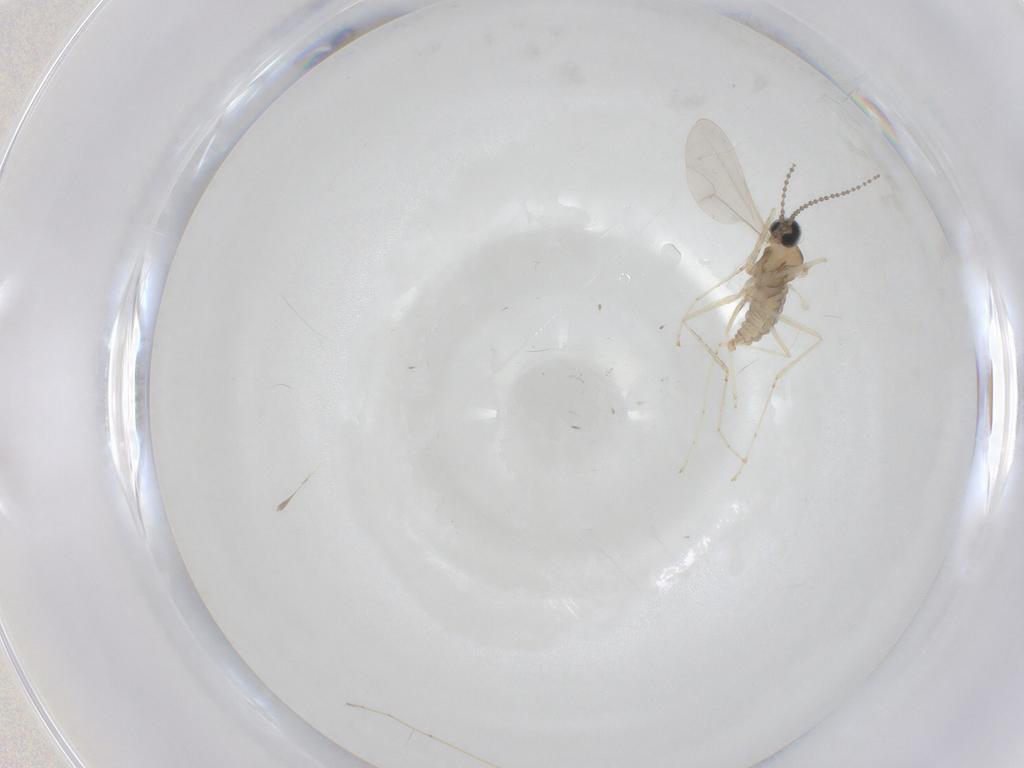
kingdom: Animalia
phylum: Arthropoda
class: Insecta
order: Diptera
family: Cecidomyiidae
